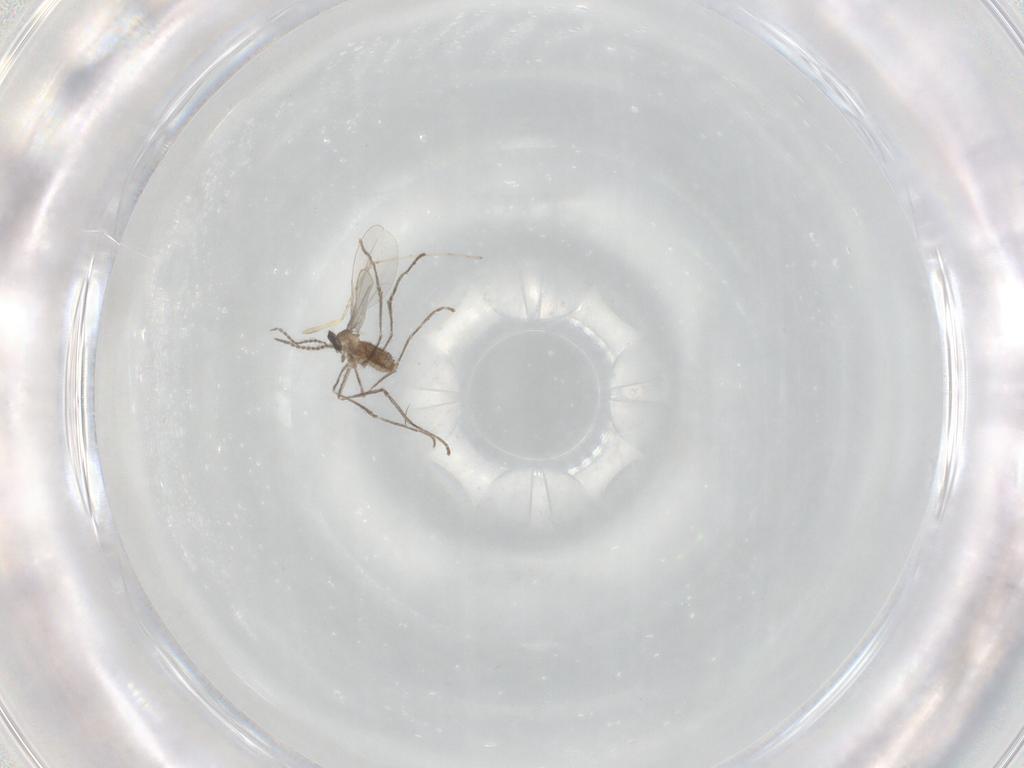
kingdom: Animalia
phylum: Arthropoda
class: Insecta
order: Diptera
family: Cecidomyiidae
